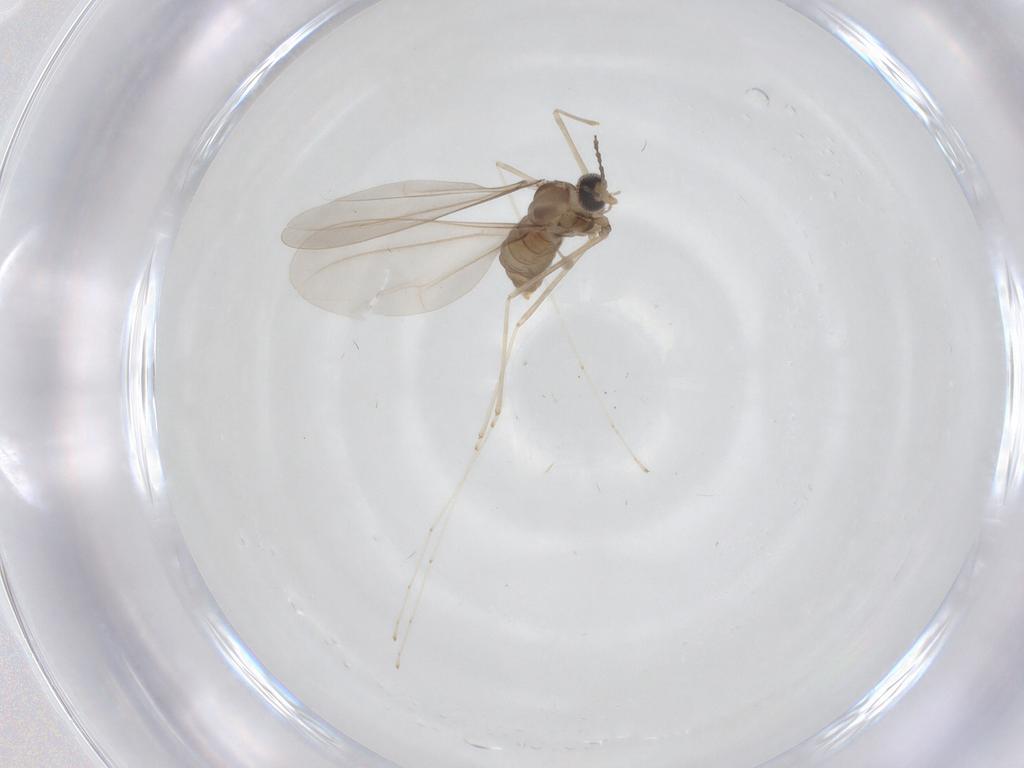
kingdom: Animalia
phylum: Arthropoda
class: Insecta
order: Diptera
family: Cecidomyiidae
